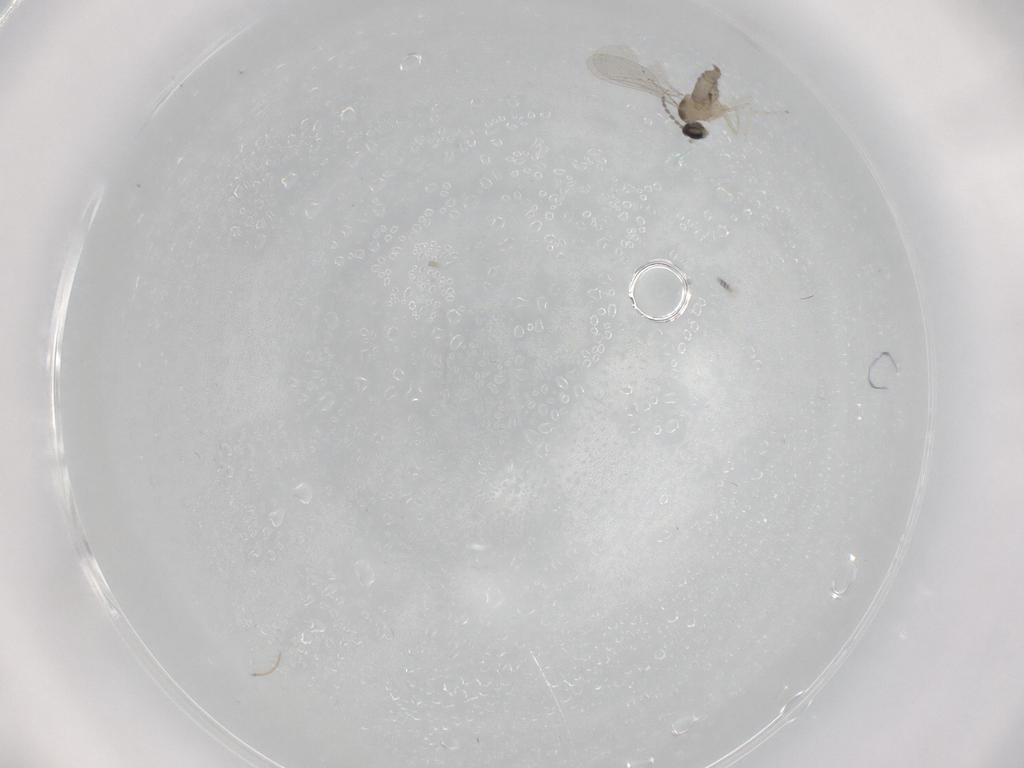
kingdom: Animalia
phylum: Arthropoda
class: Insecta
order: Diptera
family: Cecidomyiidae
